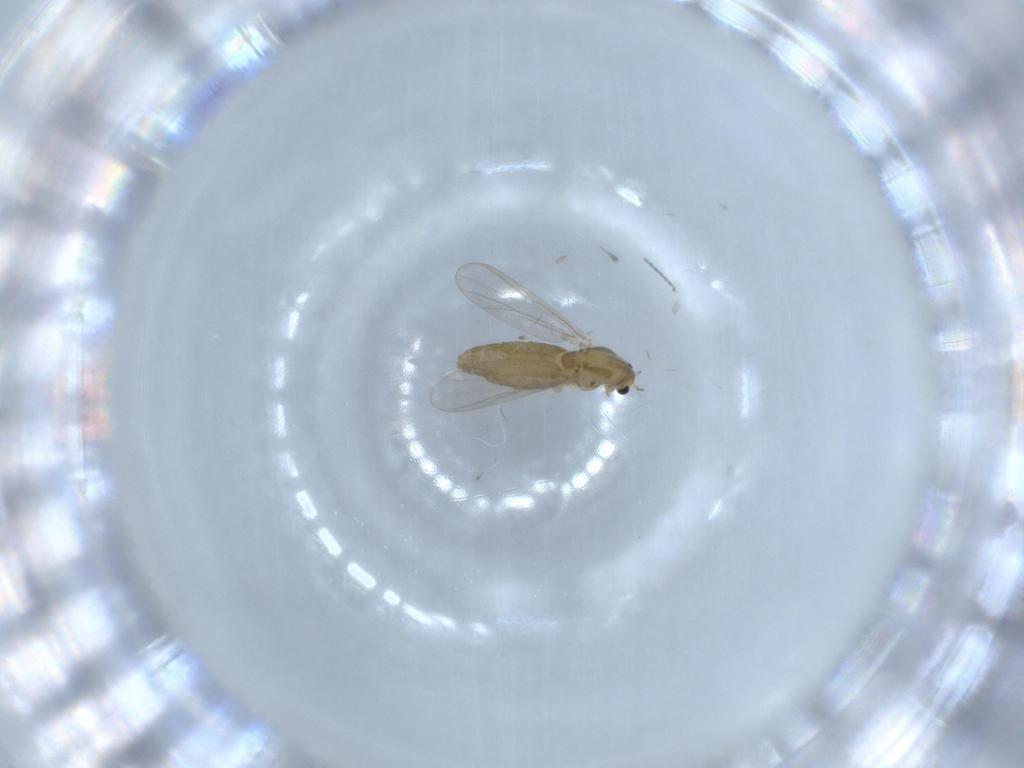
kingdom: Animalia
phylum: Arthropoda
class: Insecta
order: Diptera
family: Chironomidae
